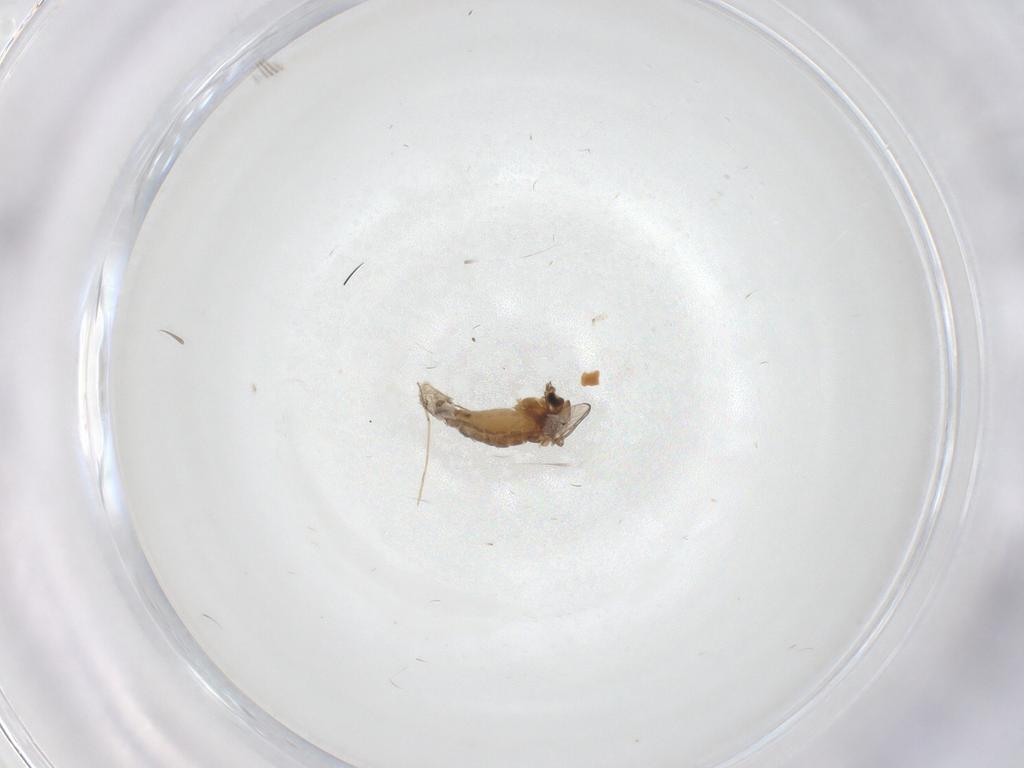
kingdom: Animalia
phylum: Arthropoda
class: Insecta
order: Diptera
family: Chironomidae
